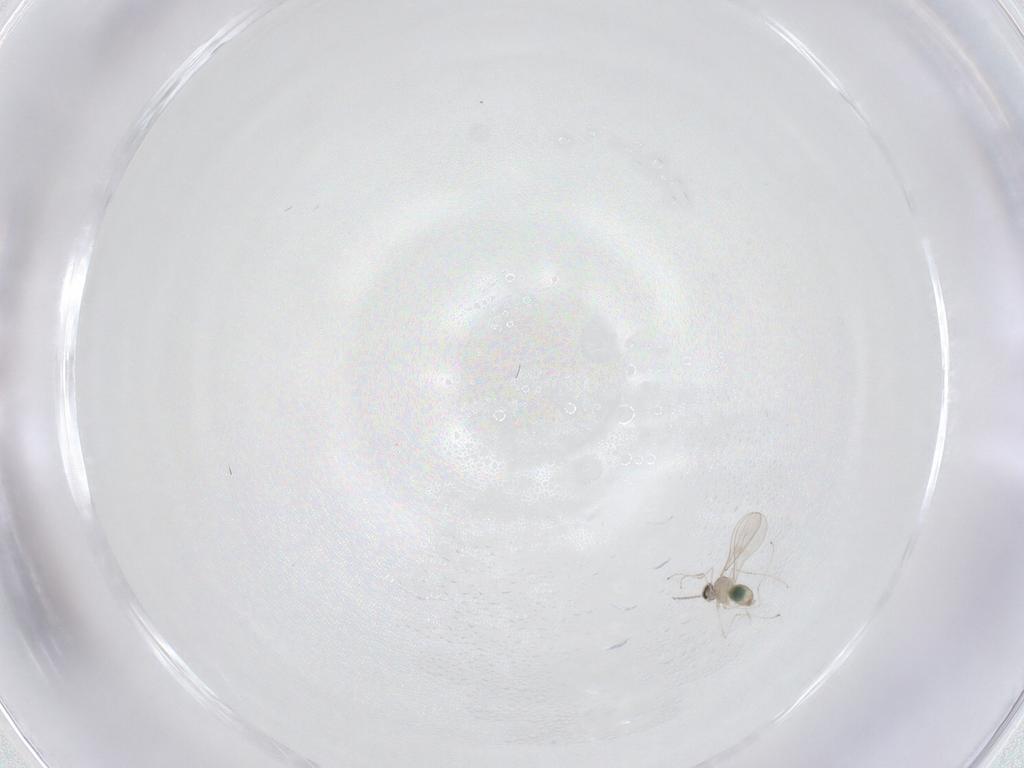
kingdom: Animalia
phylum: Arthropoda
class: Insecta
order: Diptera
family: Cecidomyiidae
